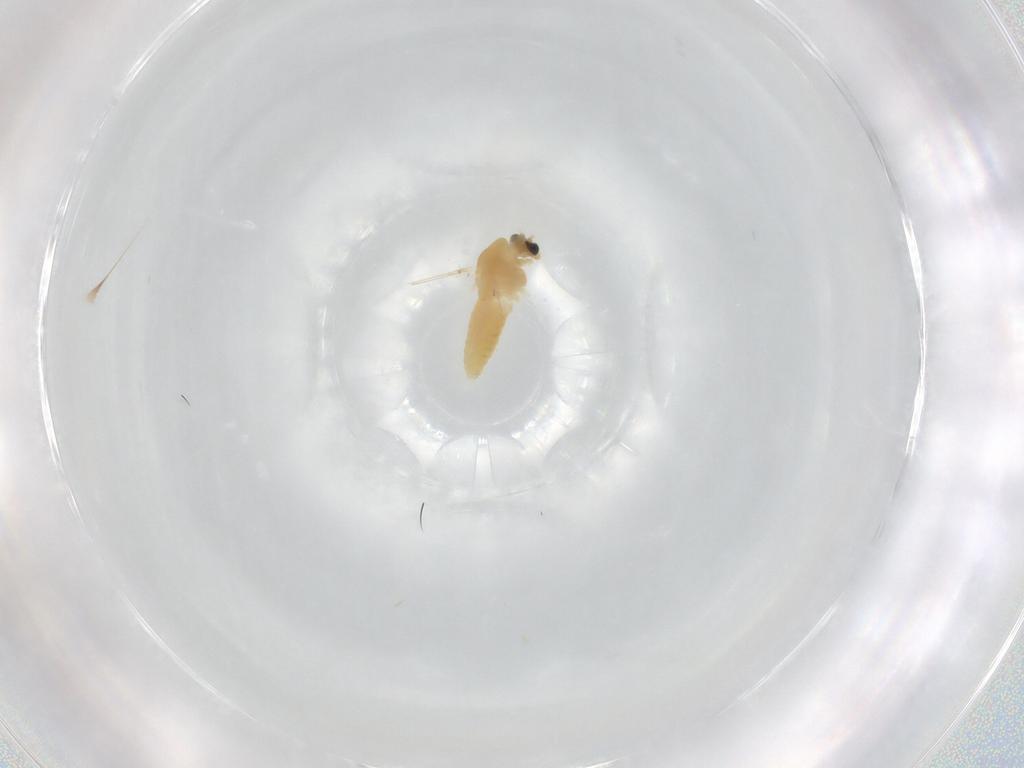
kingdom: Animalia
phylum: Arthropoda
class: Insecta
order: Diptera
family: Chironomidae
